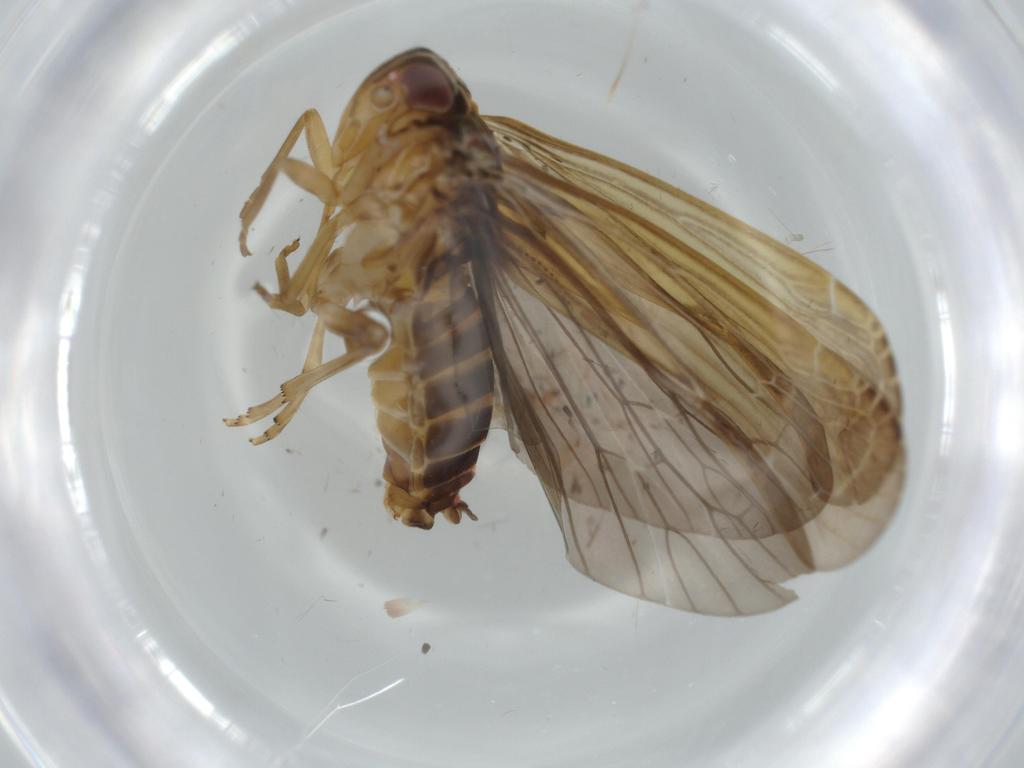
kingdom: Animalia
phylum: Arthropoda
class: Insecta
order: Hemiptera
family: Achilidae
